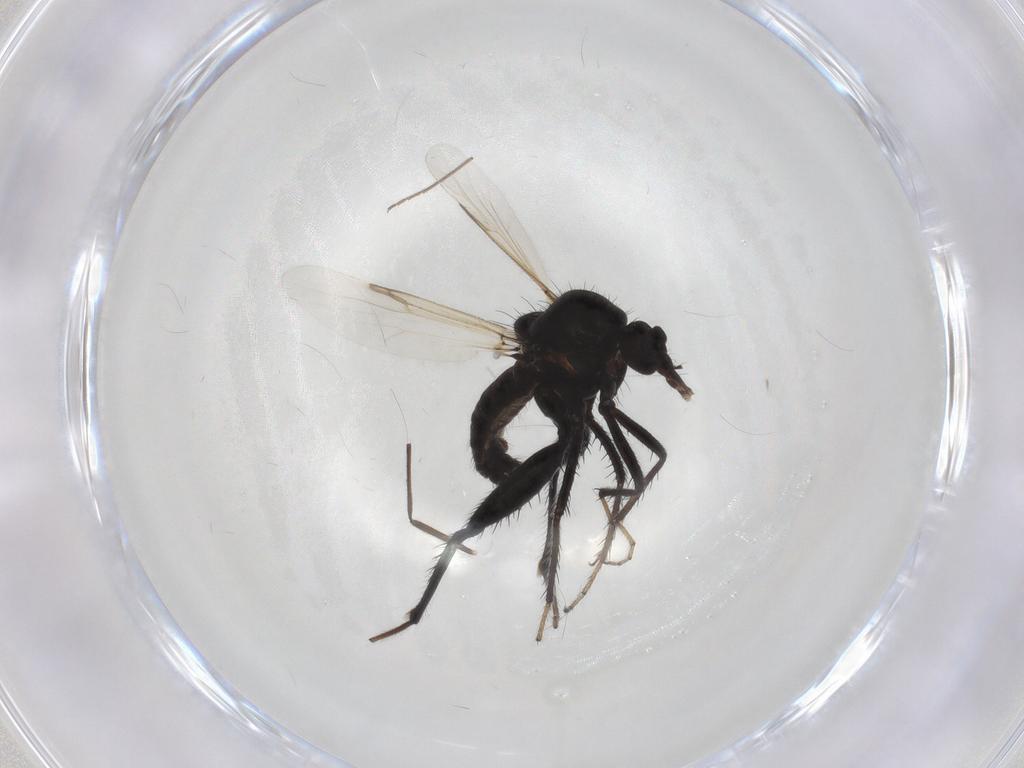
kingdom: Animalia
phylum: Arthropoda
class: Insecta
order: Diptera
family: Ceratopogonidae
